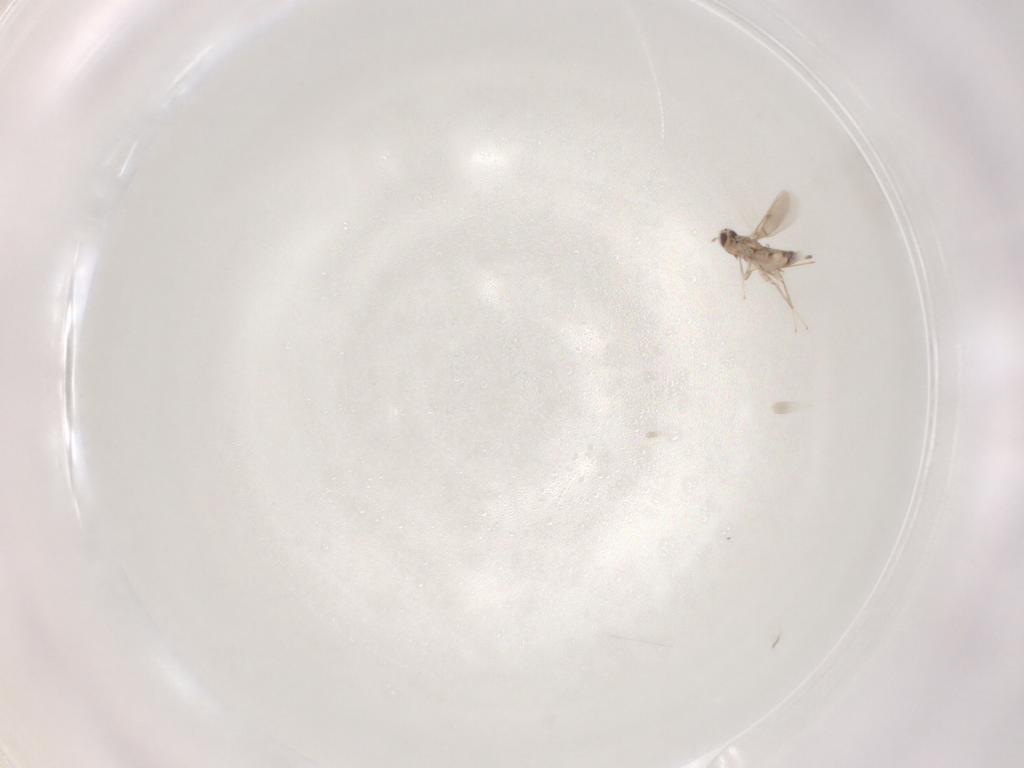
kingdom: Animalia
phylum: Arthropoda
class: Insecta
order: Hymenoptera
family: Aphelinidae
